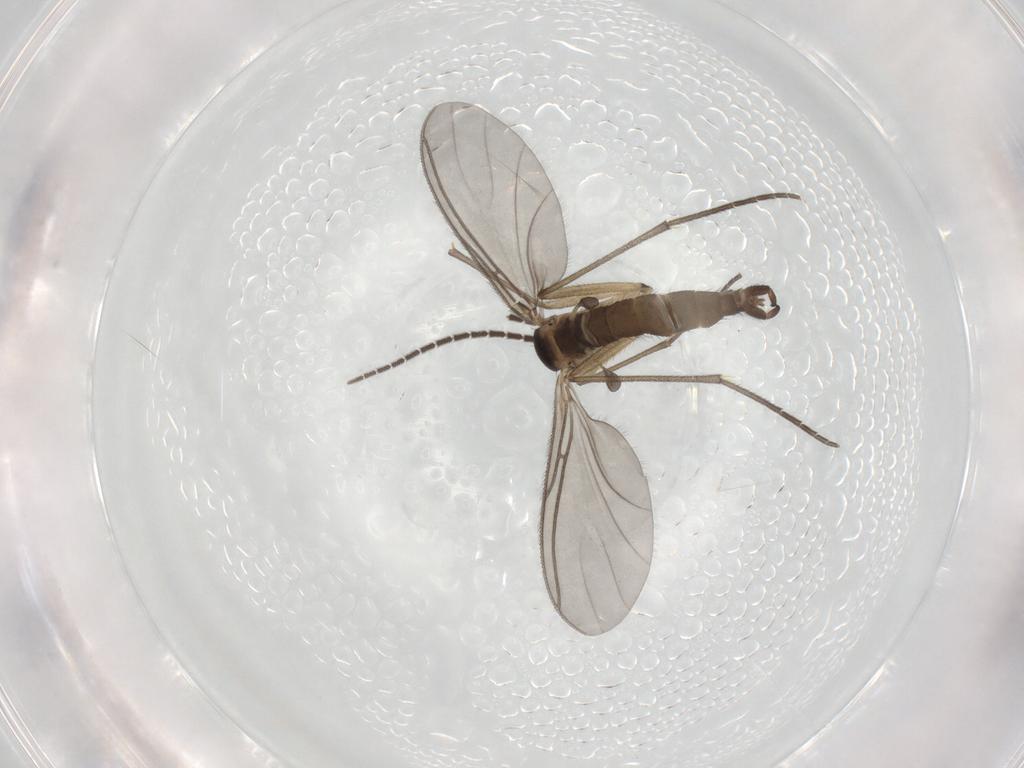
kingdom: Animalia
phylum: Arthropoda
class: Insecta
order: Diptera
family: Sciaridae
